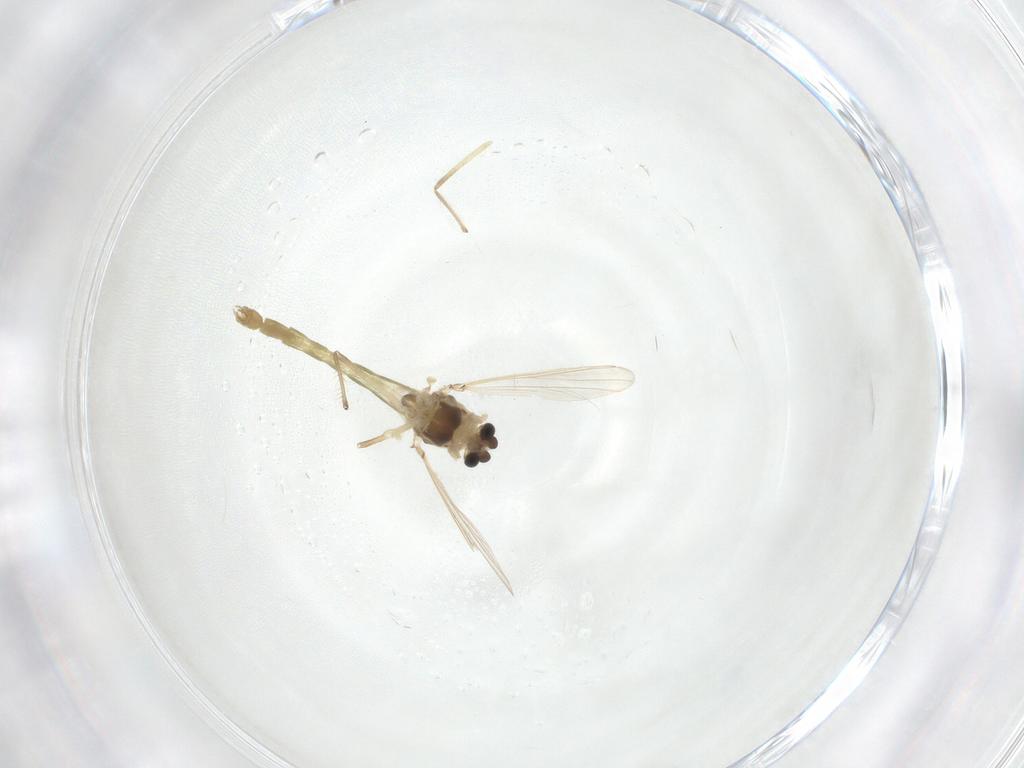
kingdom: Animalia
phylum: Arthropoda
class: Insecta
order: Diptera
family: Chironomidae
